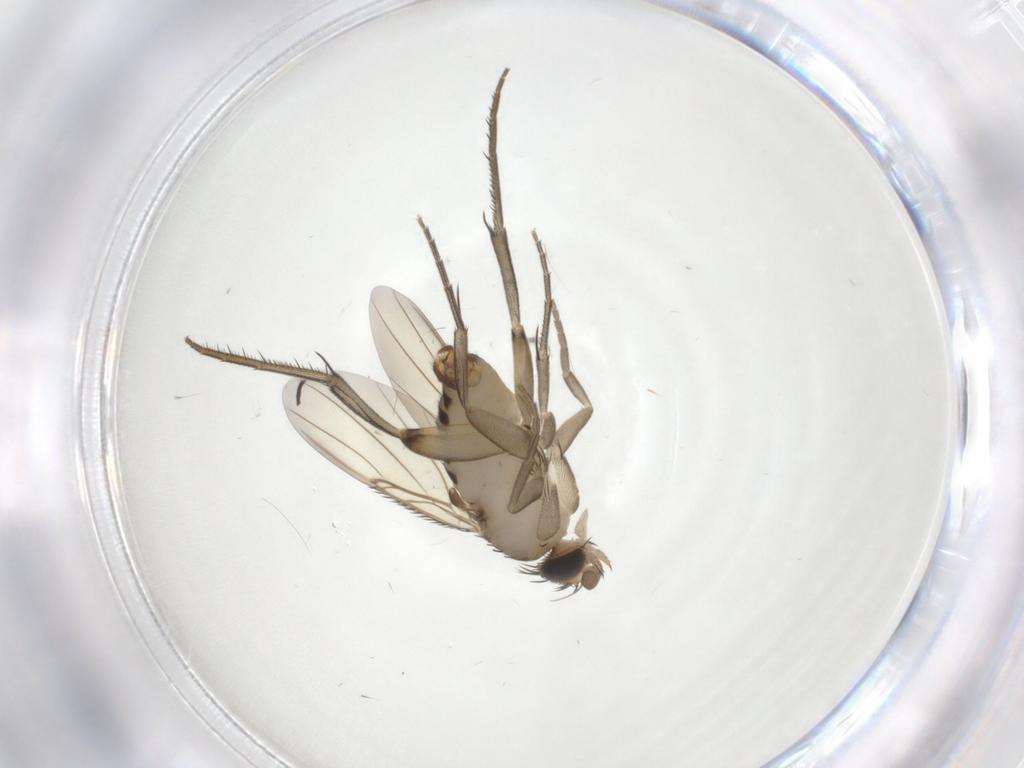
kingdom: Animalia
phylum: Arthropoda
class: Insecta
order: Diptera
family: Phoridae
